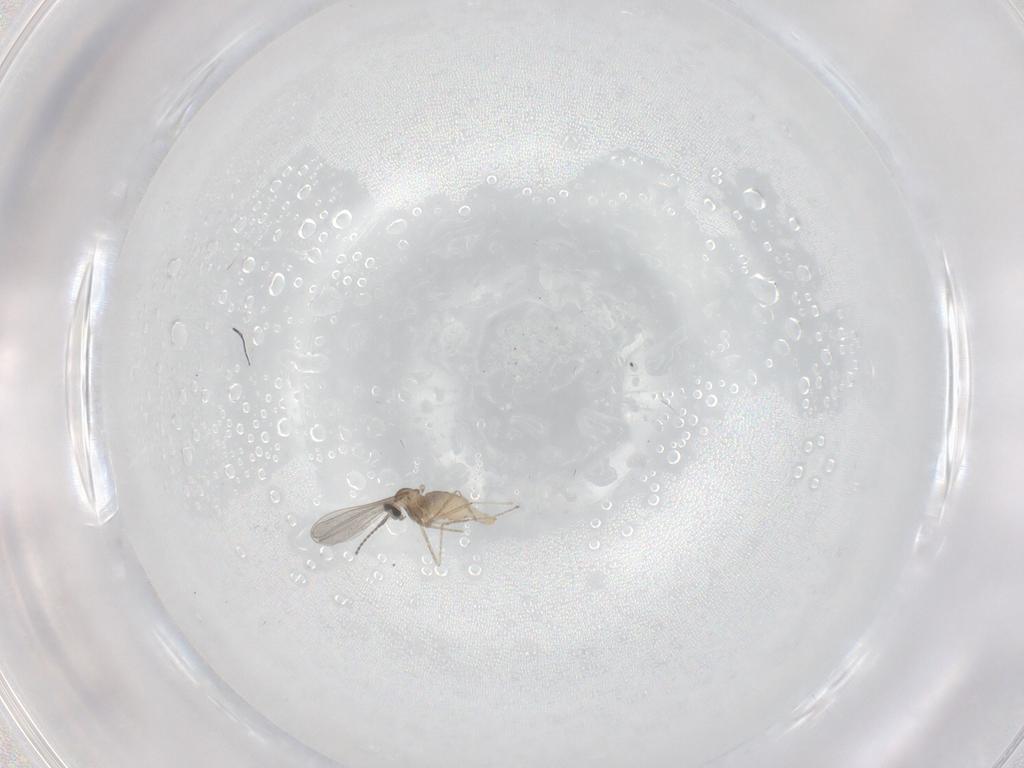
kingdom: Animalia
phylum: Arthropoda
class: Insecta
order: Diptera
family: Cecidomyiidae
